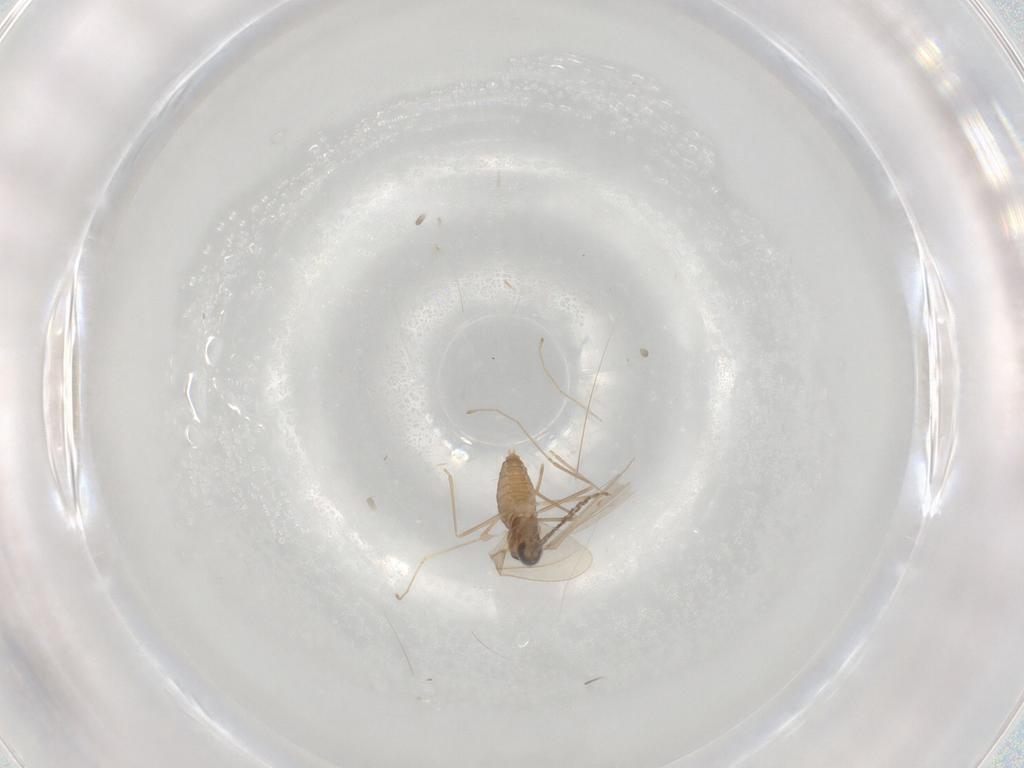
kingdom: Animalia
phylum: Arthropoda
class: Insecta
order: Diptera
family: Cecidomyiidae
